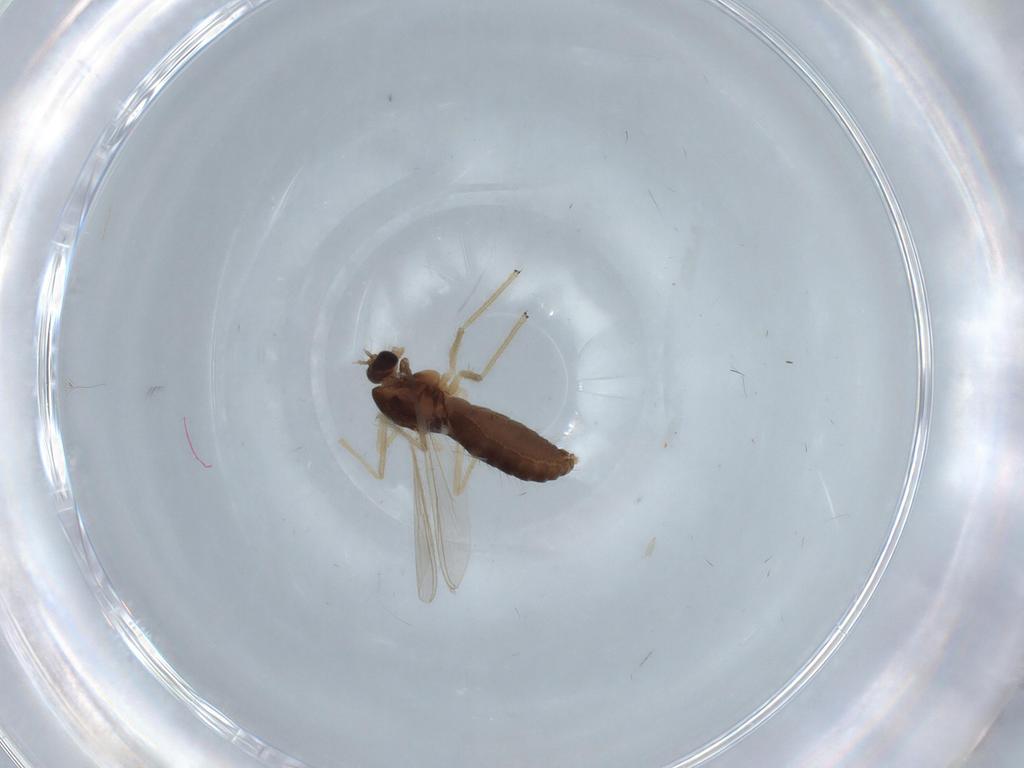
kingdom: Animalia
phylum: Arthropoda
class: Insecta
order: Diptera
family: Chironomidae
